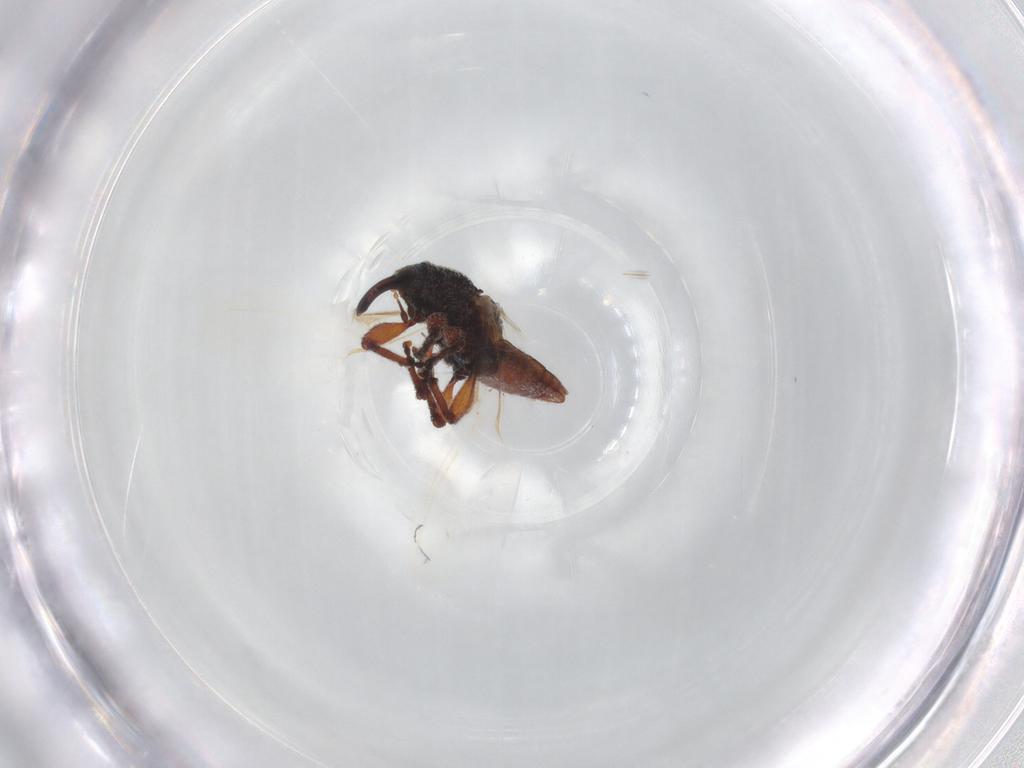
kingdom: Animalia
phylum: Arthropoda
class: Insecta
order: Coleoptera
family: Curculionidae
